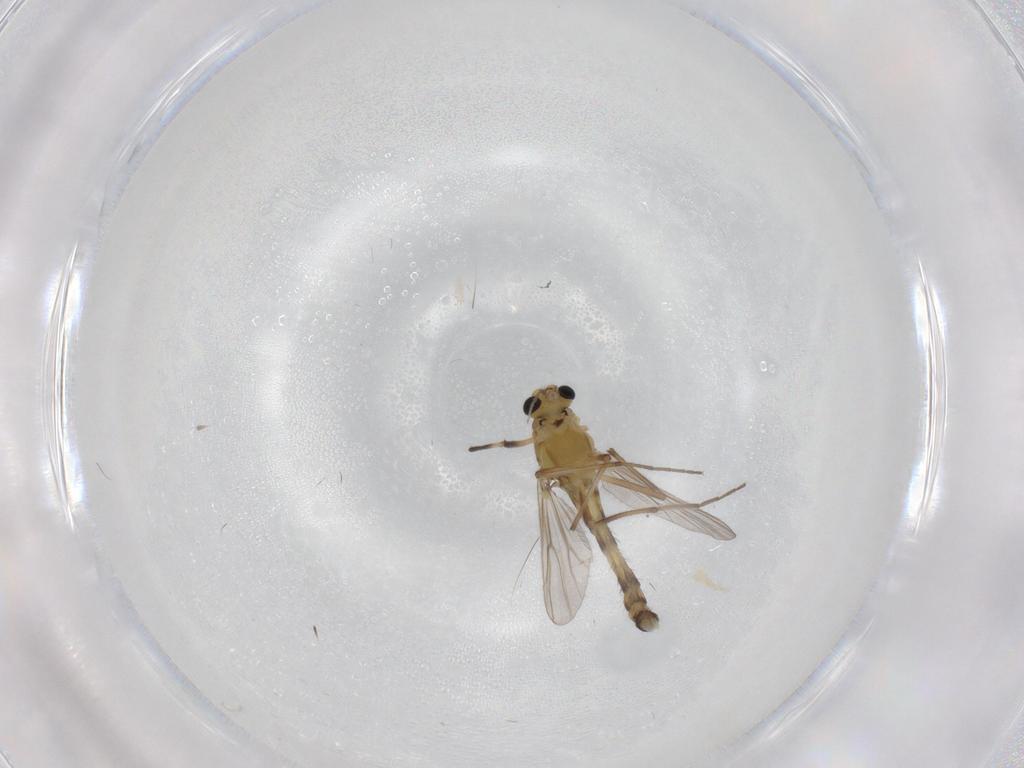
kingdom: Animalia
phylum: Arthropoda
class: Insecta
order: Diptera
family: Chironomidae
